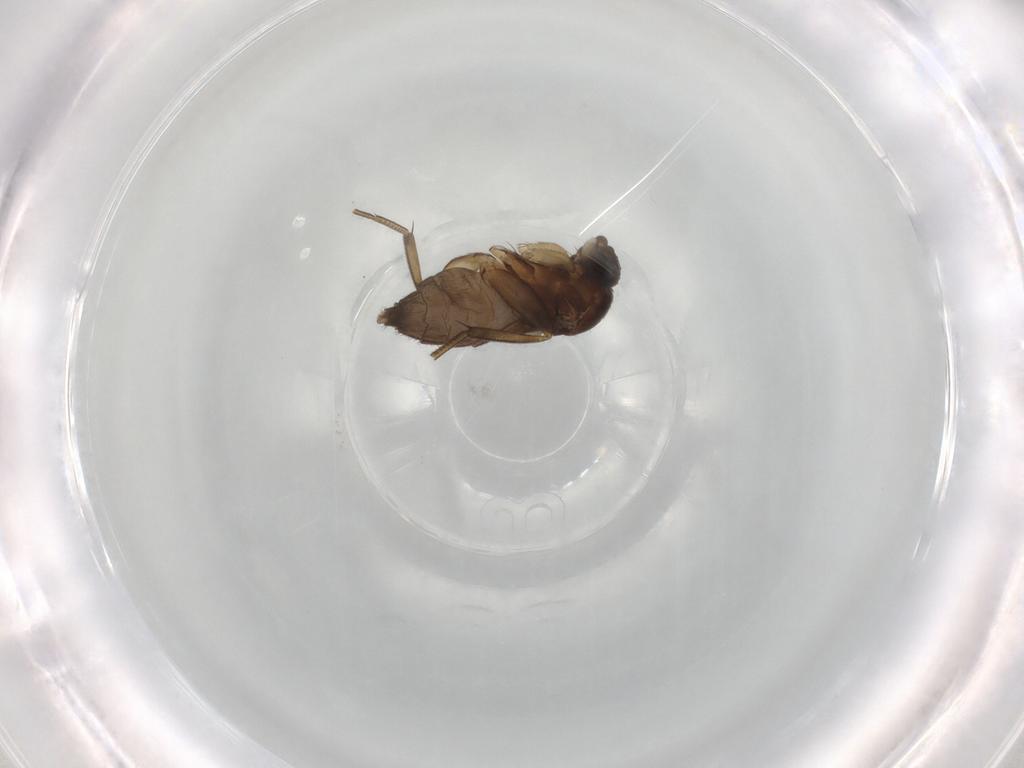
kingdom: Animalia
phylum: Arthropoda
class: Insecta
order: Diptera
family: Phoridae
